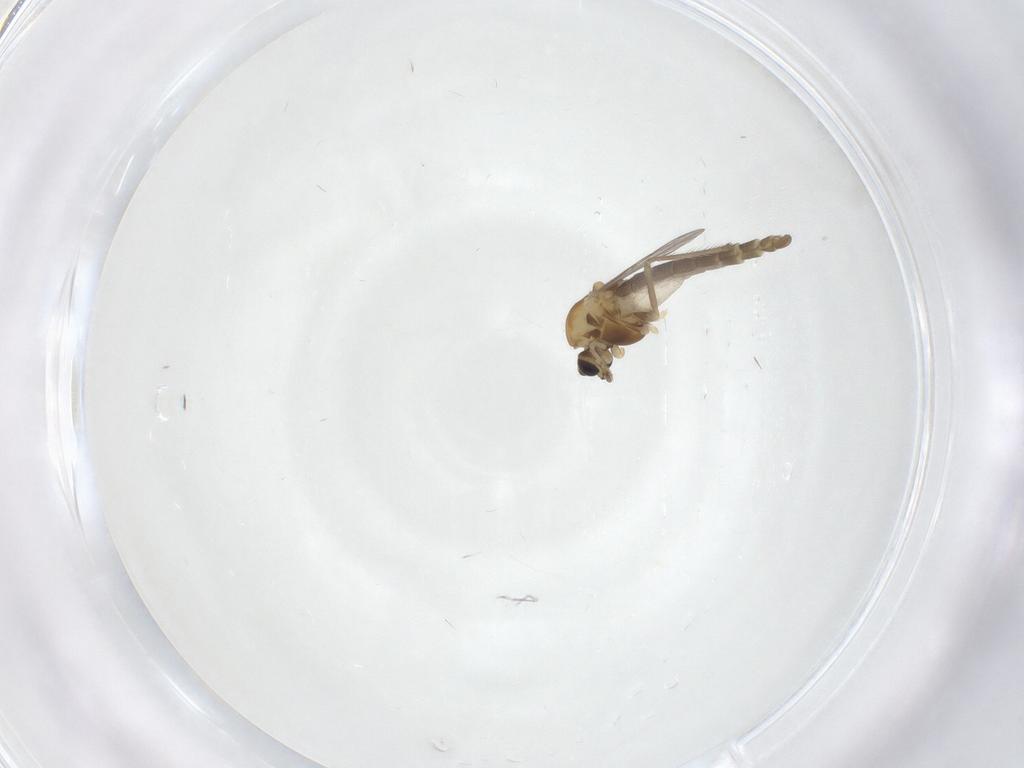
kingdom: Animalia
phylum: Arthropoda
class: Insecta
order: Diptera
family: Chironomidae
